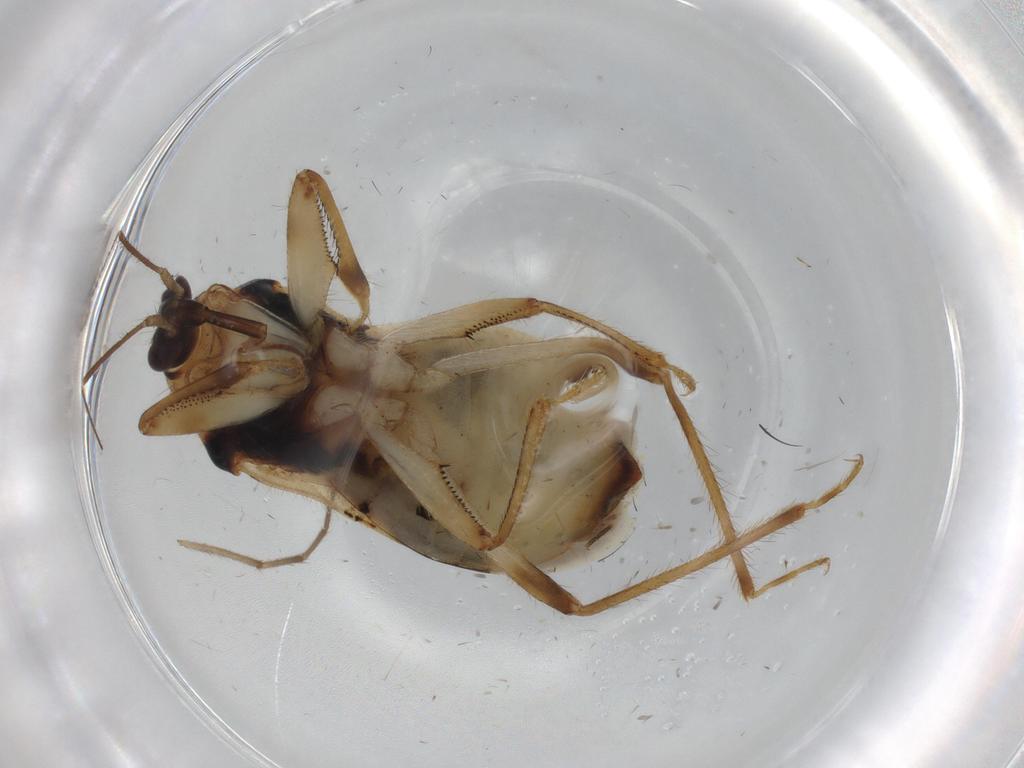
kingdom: Animalia
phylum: Arthropoda
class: Insecta
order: Hemiptera
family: Nabidae
